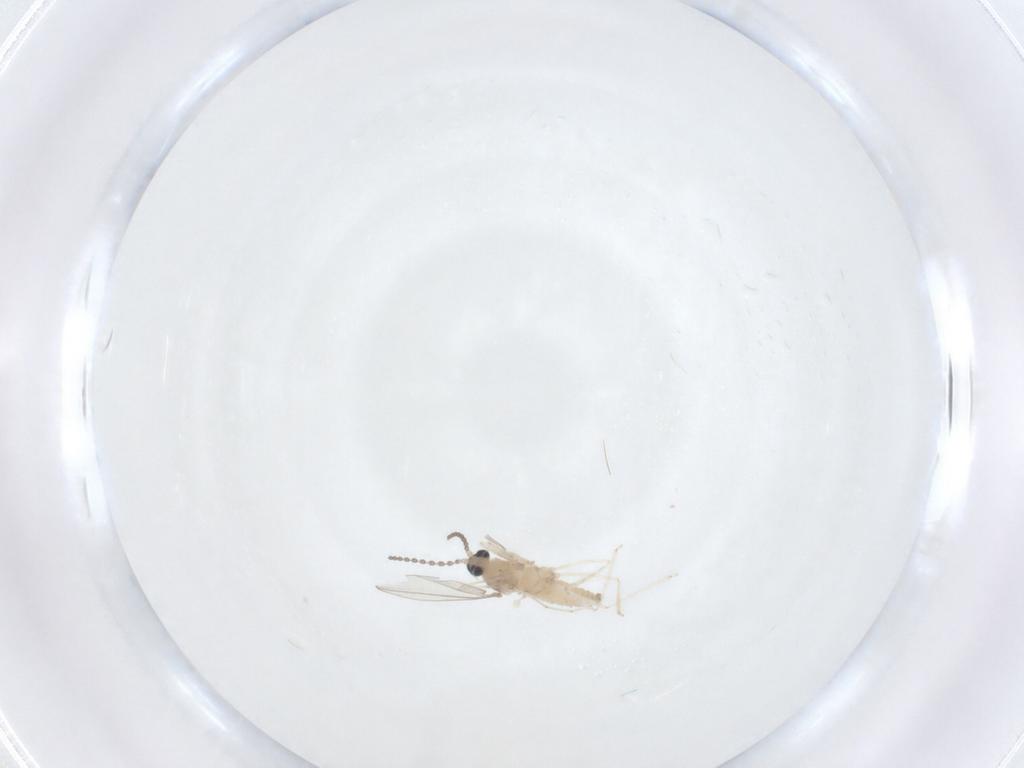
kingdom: Animalia
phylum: Arthropoda
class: Insecta
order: Diptera
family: Cecidomyiidae
